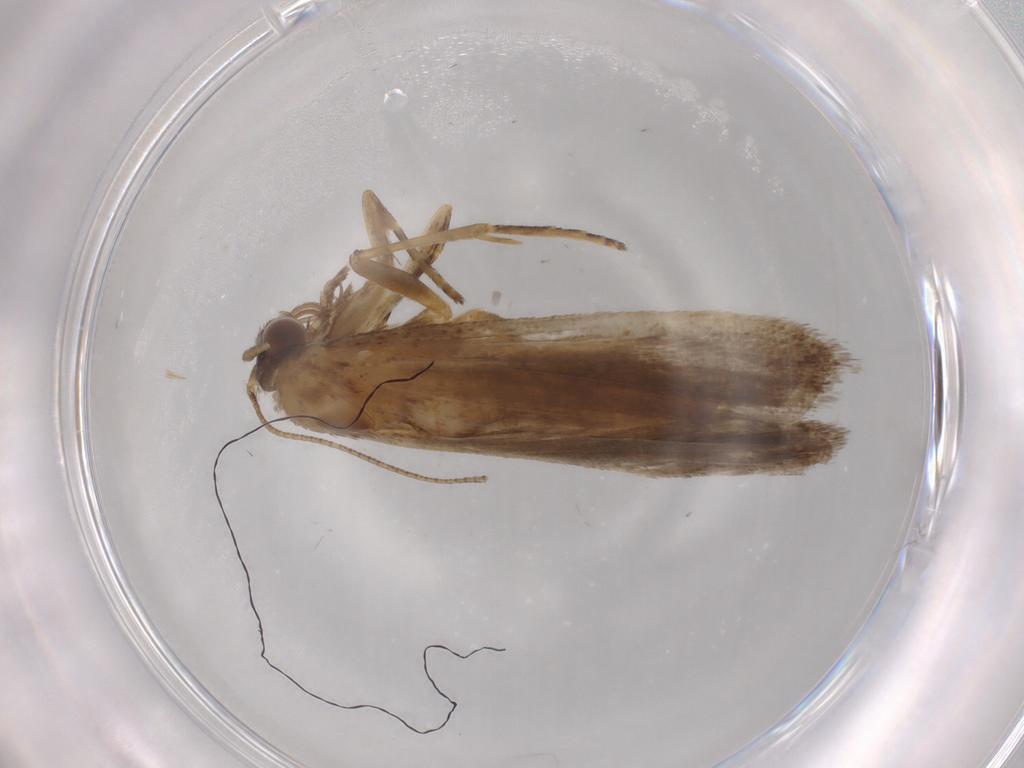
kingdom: Animalia
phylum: Arthropoda
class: Insecta
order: Lepidoptera
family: Noctuidae
